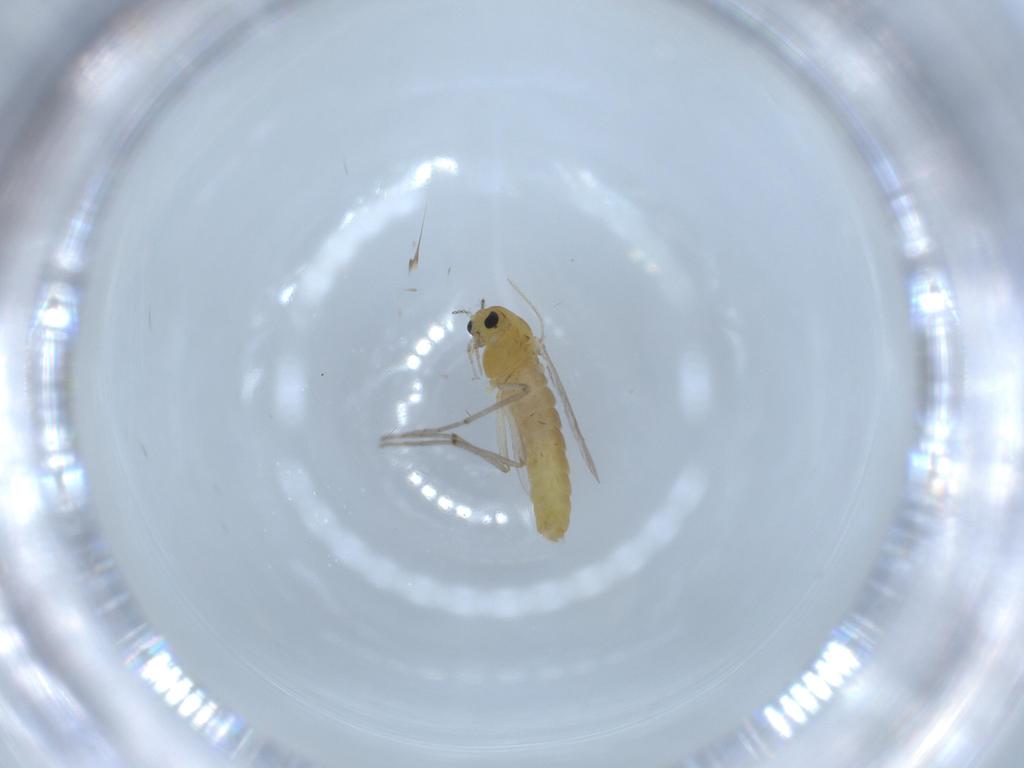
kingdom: Animalia
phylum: Arthropoda
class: Insecta
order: Diptera
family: Chironomidae
